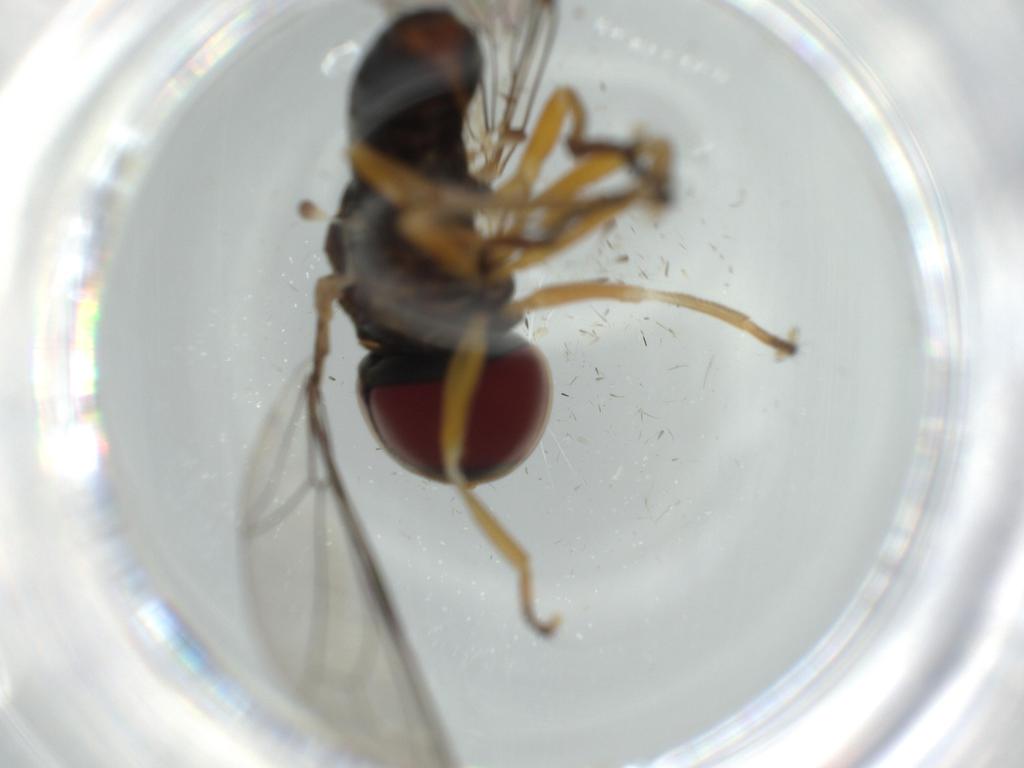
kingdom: Animalia
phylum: Arthropoda
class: Insecta
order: Diptera
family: Pipunculidae
